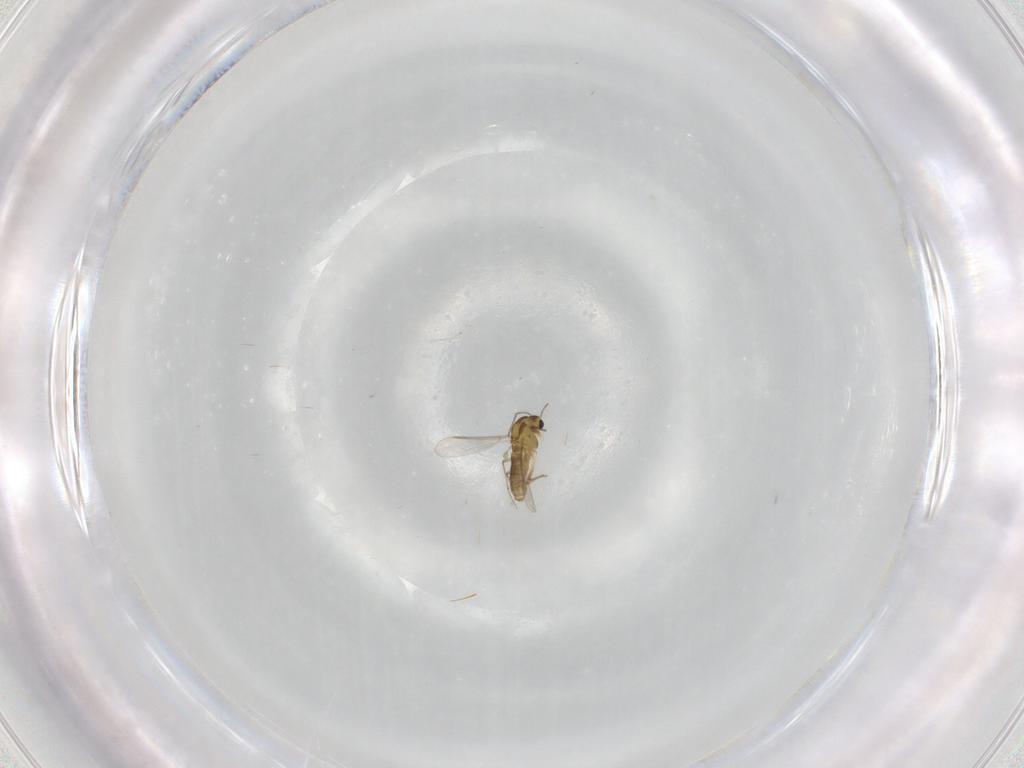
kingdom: Animalia
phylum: Arthropoda
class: Insecta
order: Diptera
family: Chironomidae
